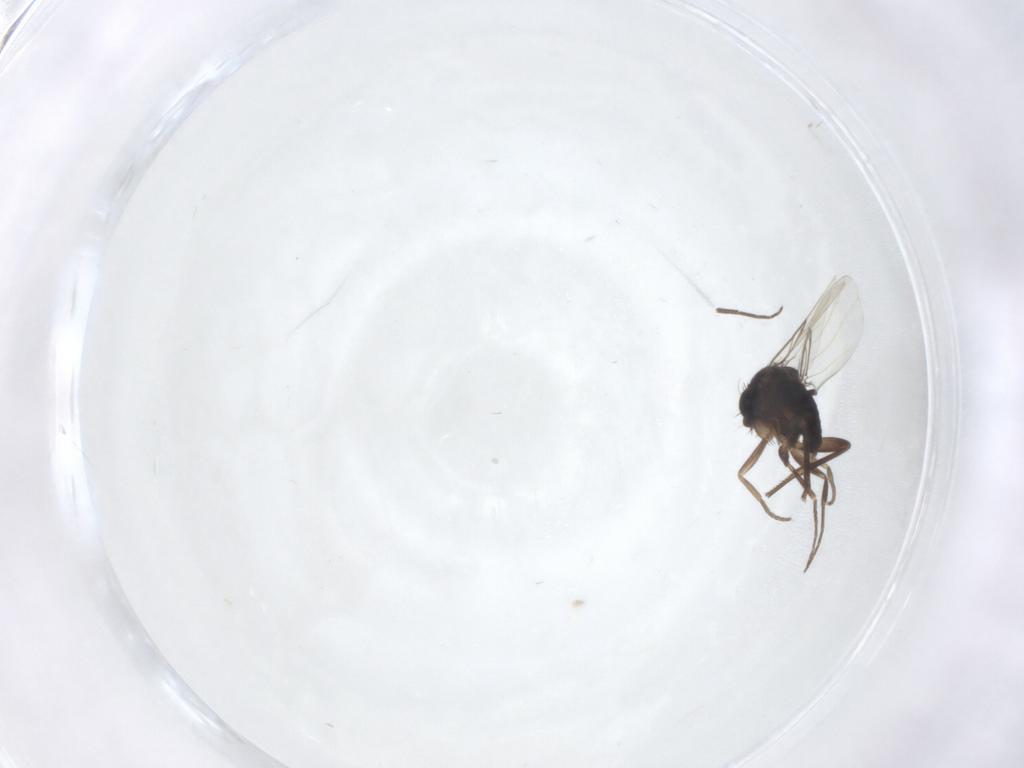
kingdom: Animalia
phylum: Arthropoda
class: Insecta
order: Diptera
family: Phoridae
